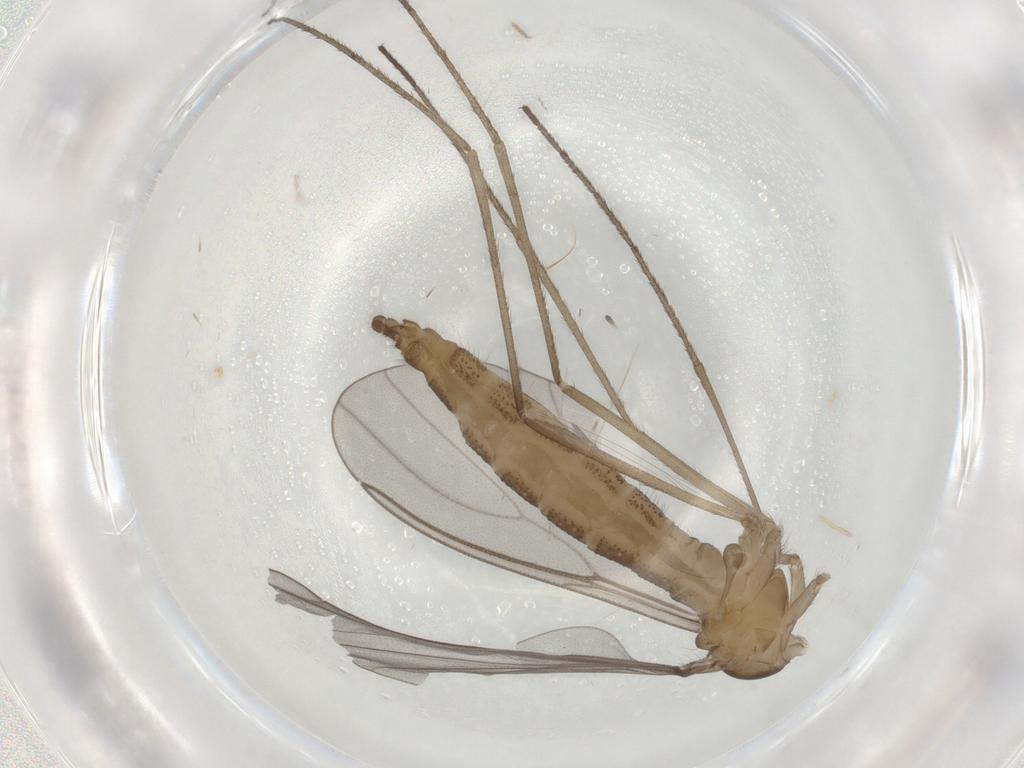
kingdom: Animalia
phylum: Arthropoda
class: Insecta
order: Diptera
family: Cecidomyiidae
